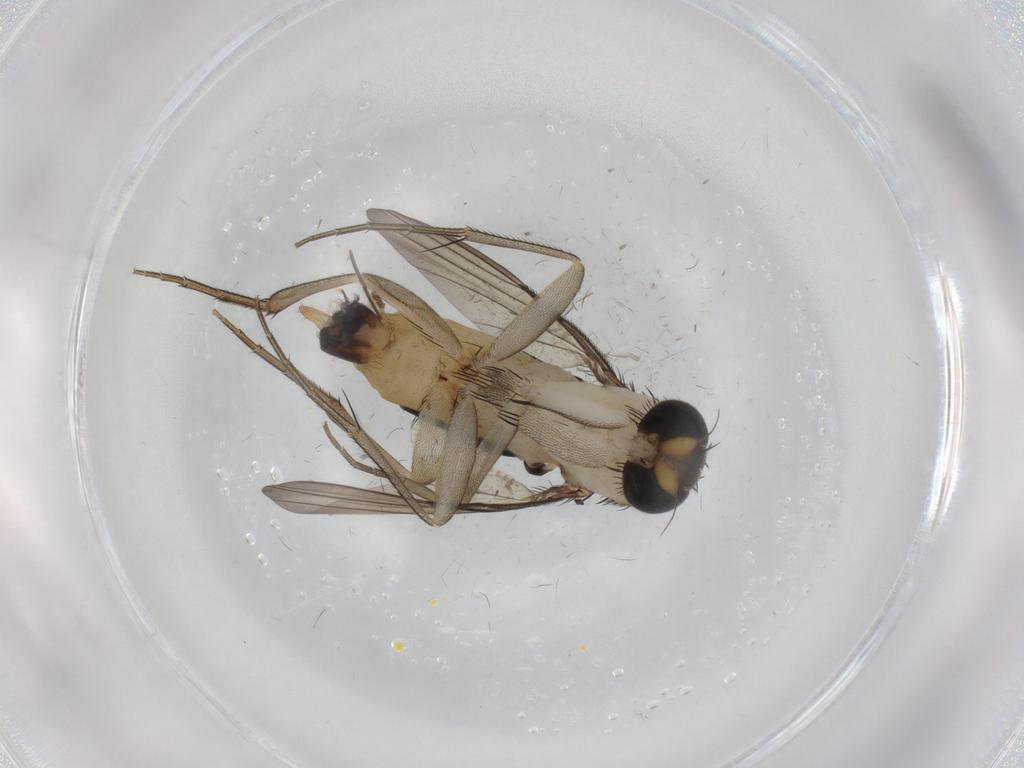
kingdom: Animalia
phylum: Arthropoda
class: Insecta
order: Diptera
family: Phoridae
